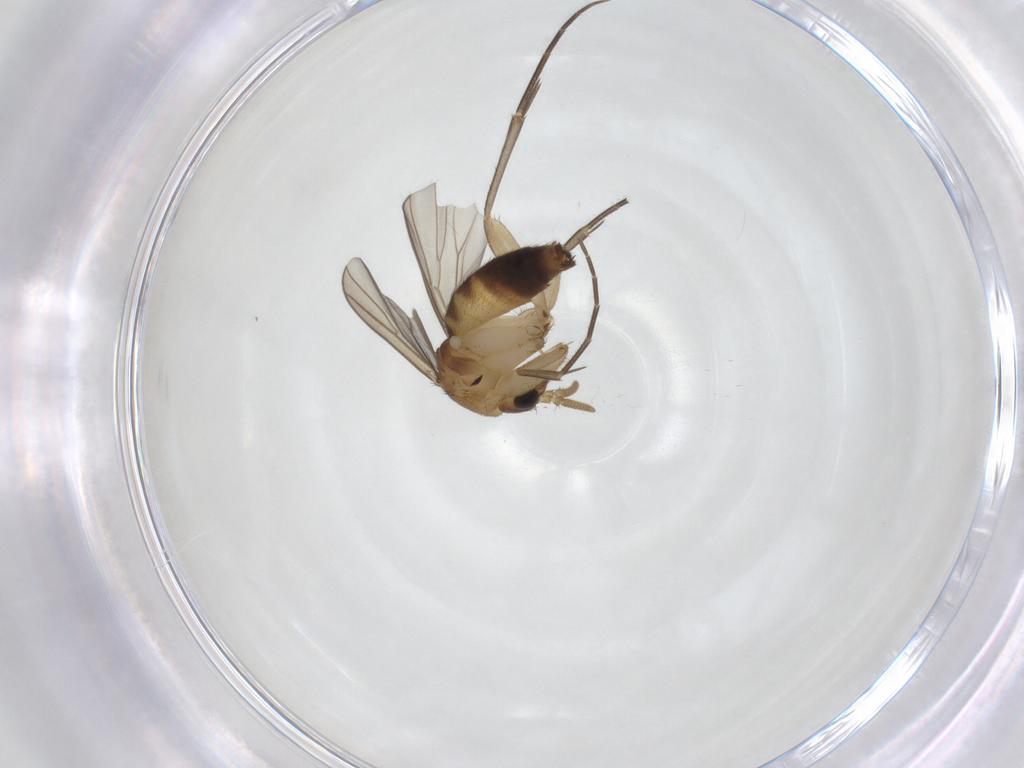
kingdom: Animalia
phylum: Arthropoda
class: Insecta
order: Diptera
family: Mycetophilidae
